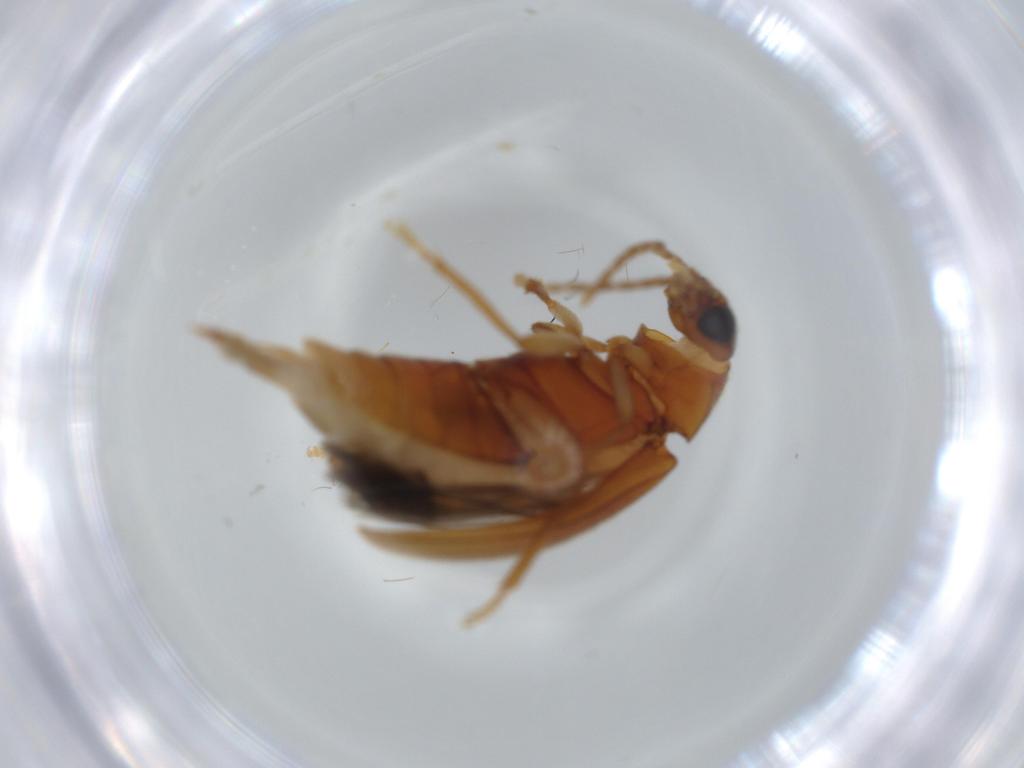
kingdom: Animalia
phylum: Arthropoda
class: Insecta
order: Coleoptera
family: Ptilodactylidae
